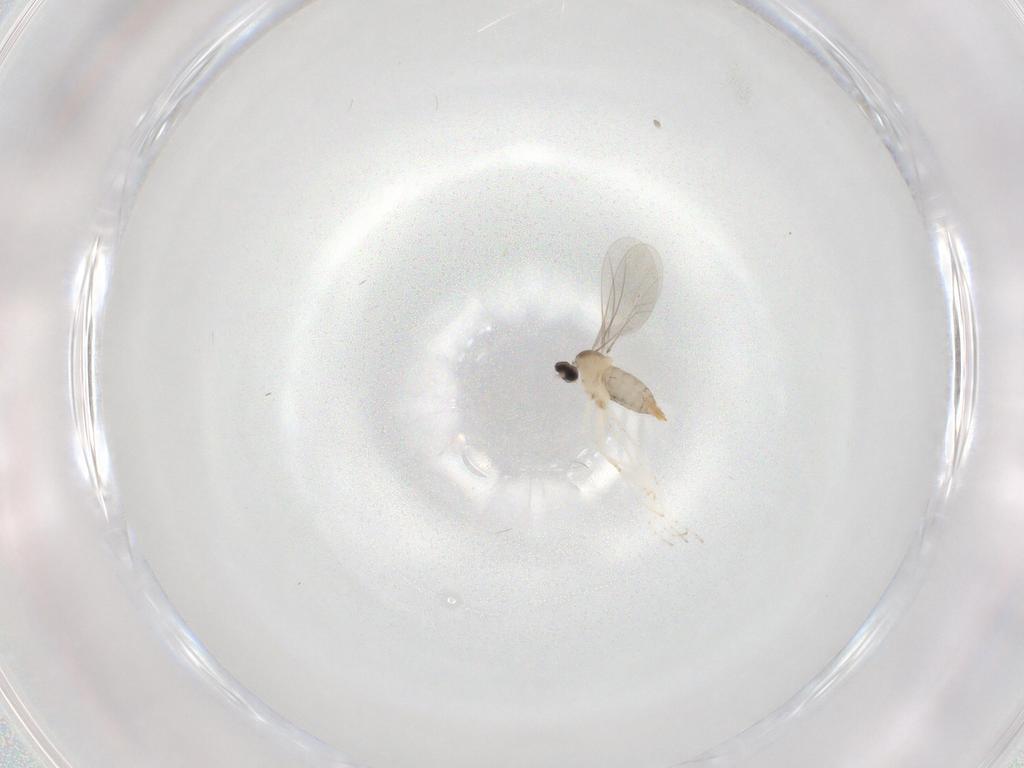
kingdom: Animalia
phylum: Arthropoda
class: Insecta
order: Diptera
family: Cecidomyiidae
